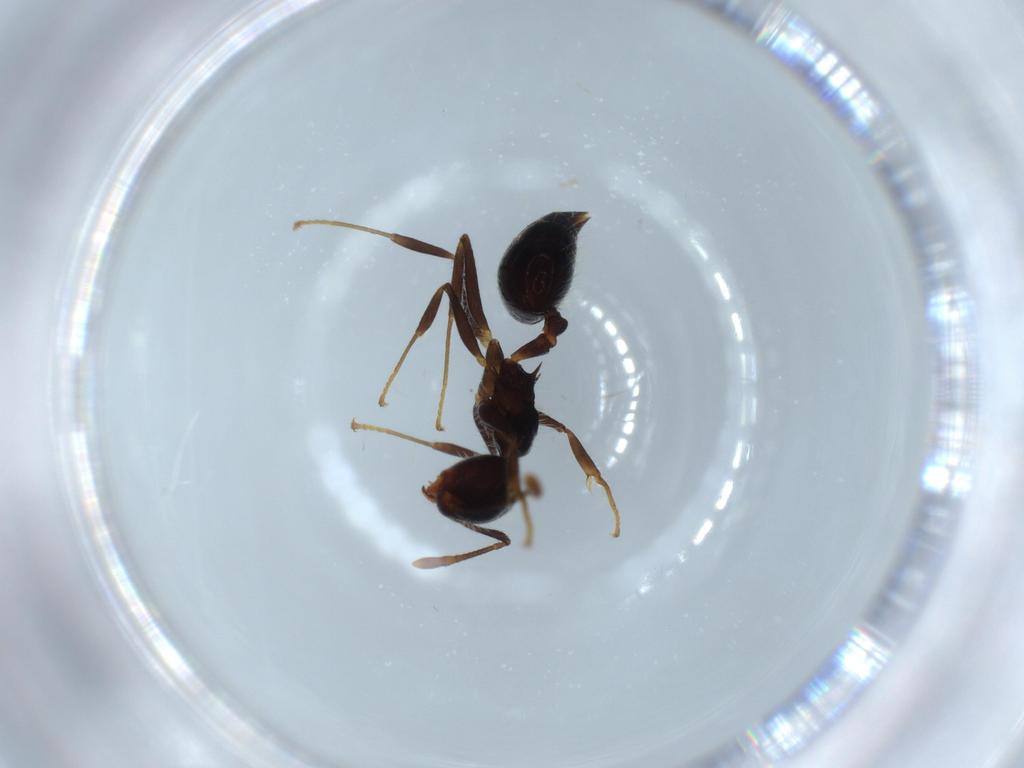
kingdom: Animalia
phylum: Arthropoda
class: Insecta
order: Hymenoptera
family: Formicidae
